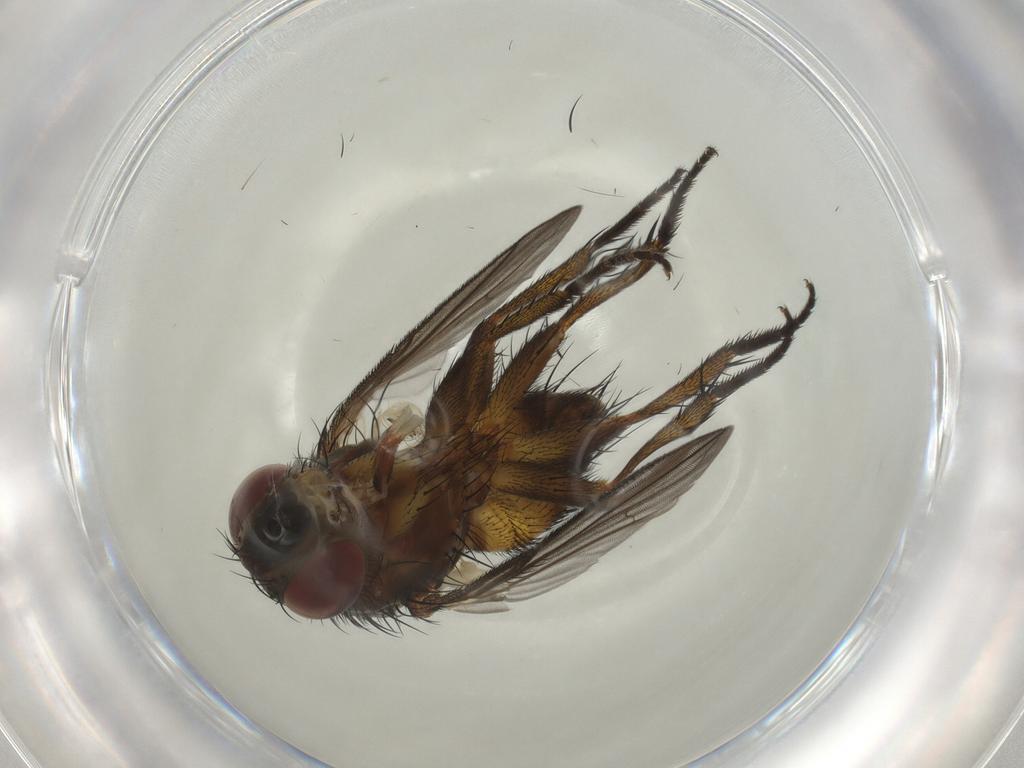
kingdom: Animalia
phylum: Arthropoda
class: Insecta
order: Diptera
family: Tachinidae
